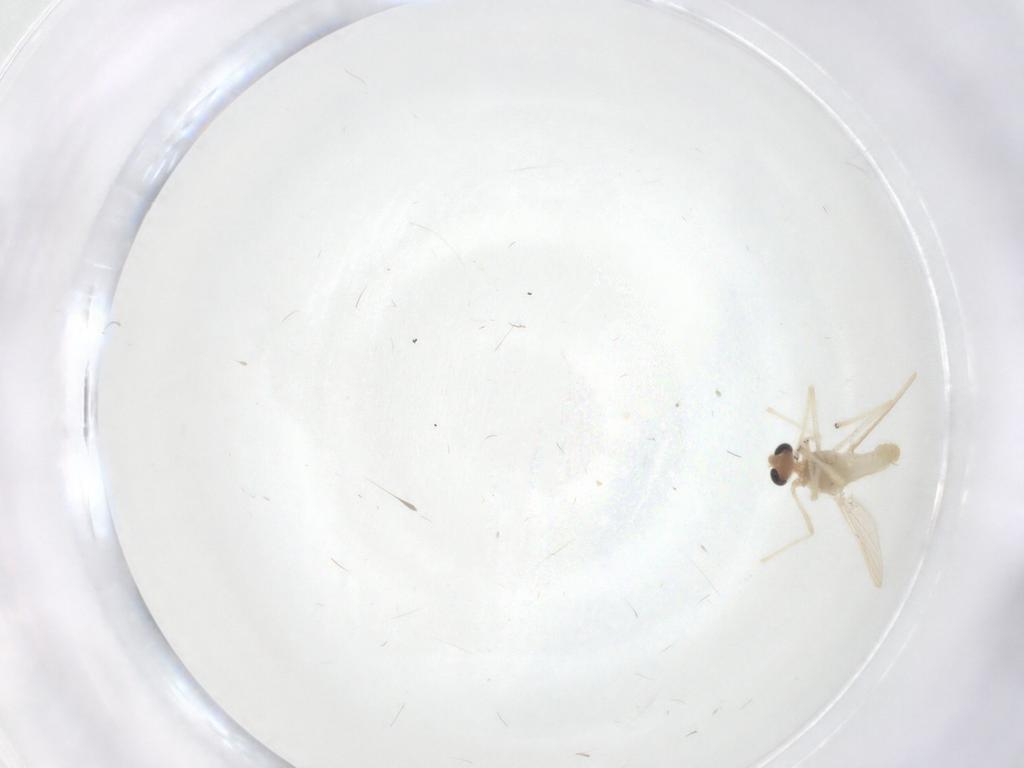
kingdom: Animalia
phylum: Arthropoda
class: Insecta
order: Diptera
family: Chironomidae
